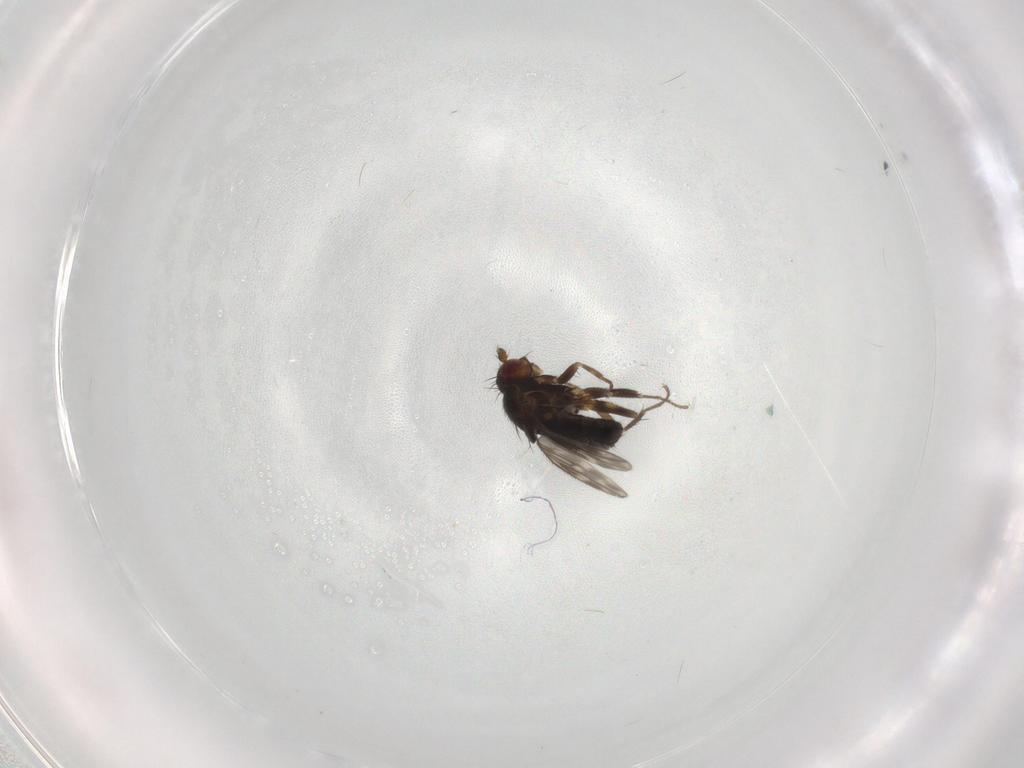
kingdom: Animalia
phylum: Arthropoda
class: Insecta
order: Diptera
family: Sphaeroceridae
